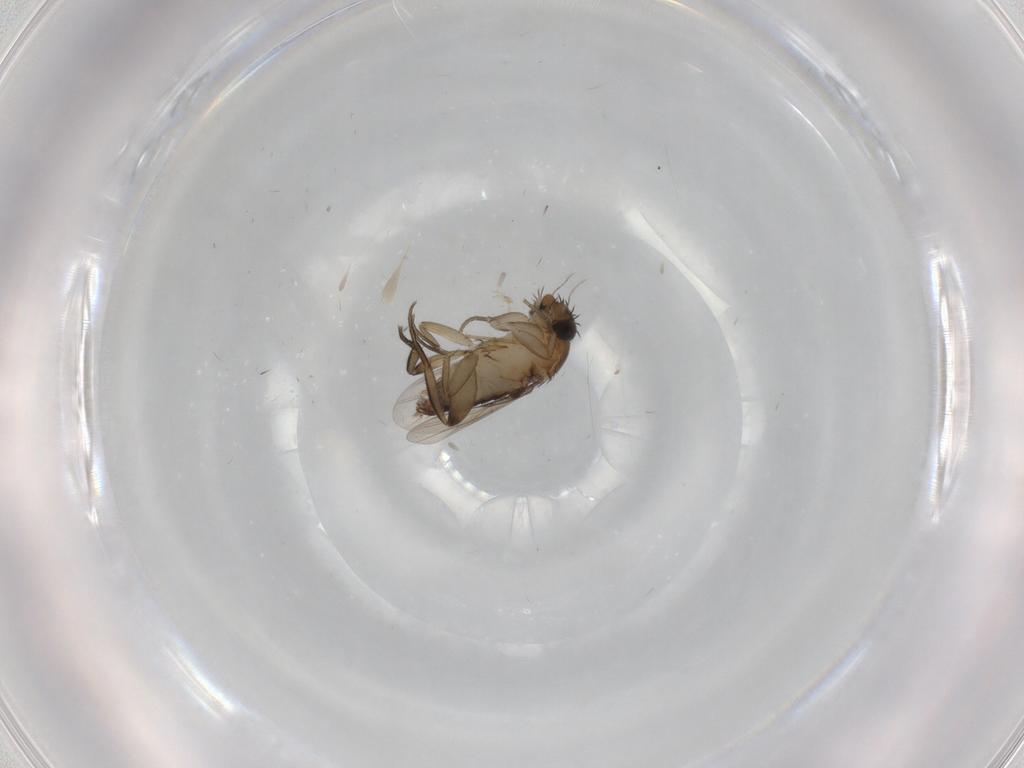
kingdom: Animalia
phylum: Arthropoda
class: Insecta
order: Diptera
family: Phoridae
